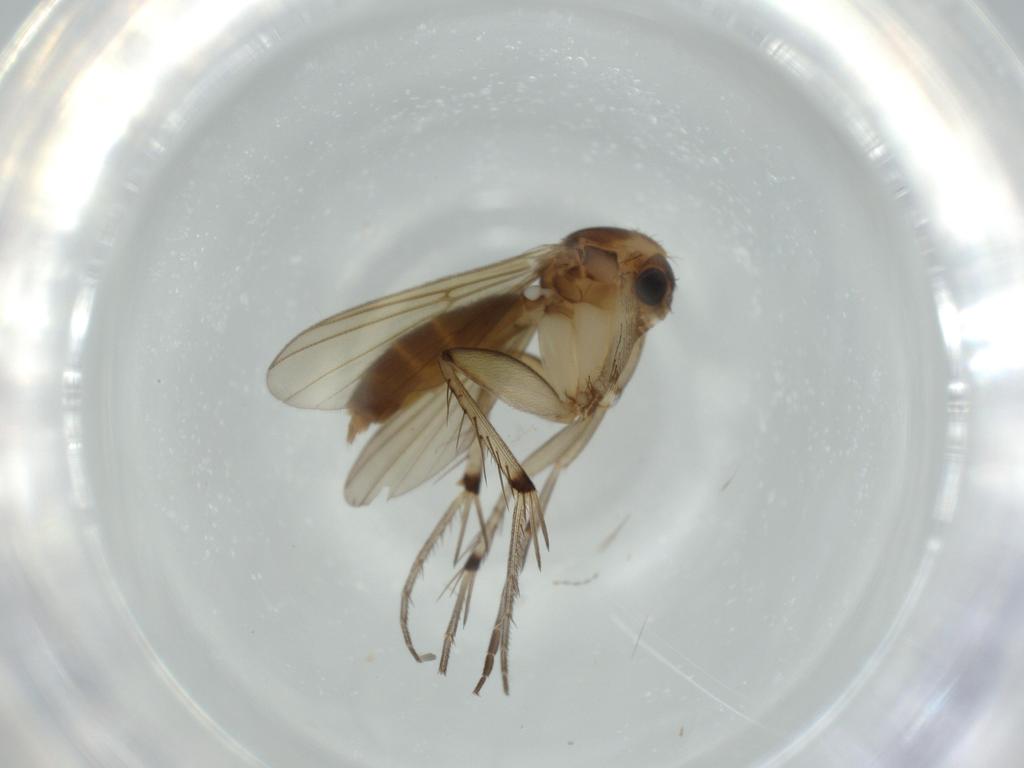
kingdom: Animalia
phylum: Arthropoda
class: Insecta
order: Diptera
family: Cecidomyiidae
